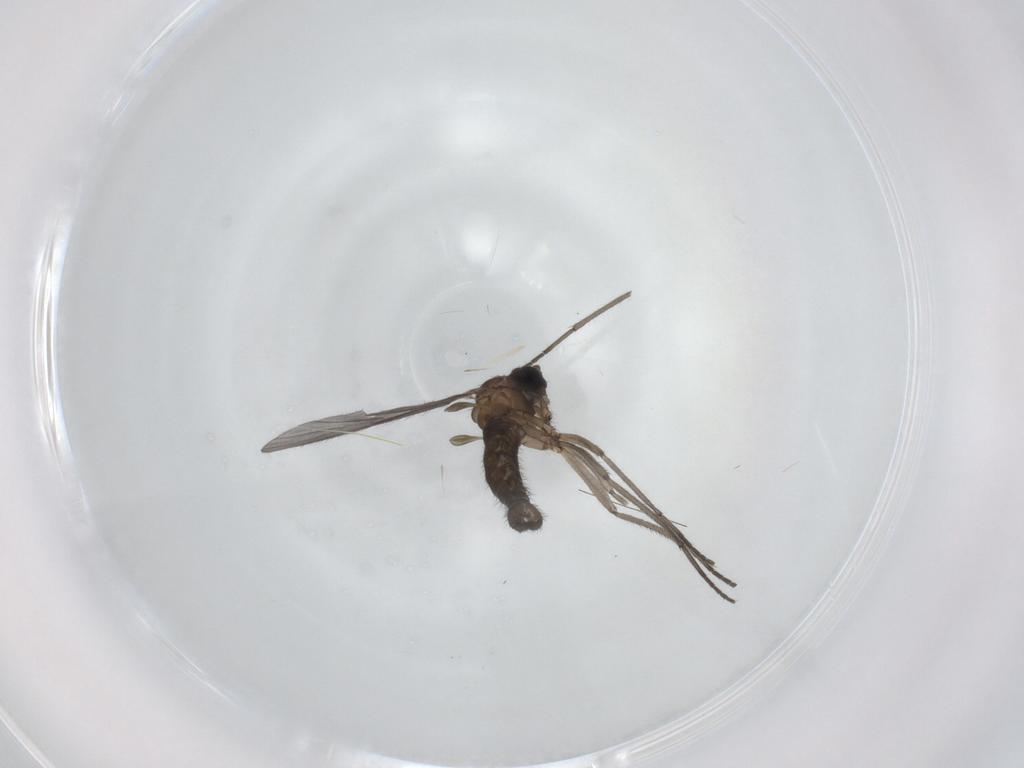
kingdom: Animalia
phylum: Arthropoda
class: Insecta
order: Diptera
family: Sciaridae
